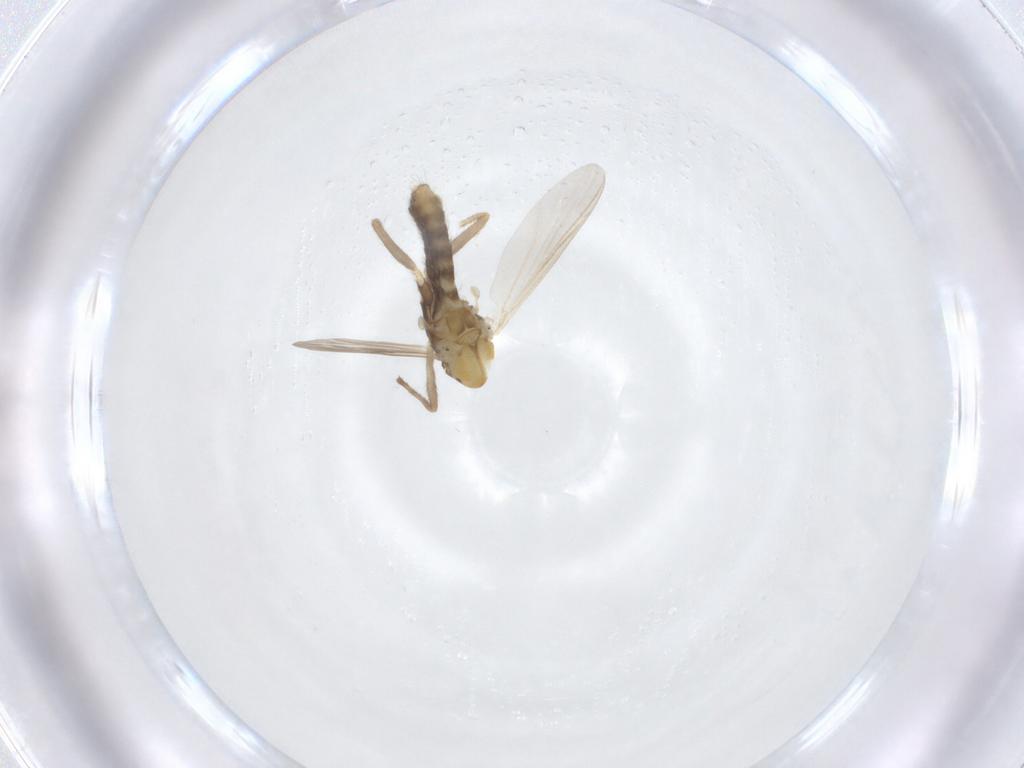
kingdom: Animalia
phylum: Arthropoda
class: Insecta
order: Diptera
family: Chironomidae
